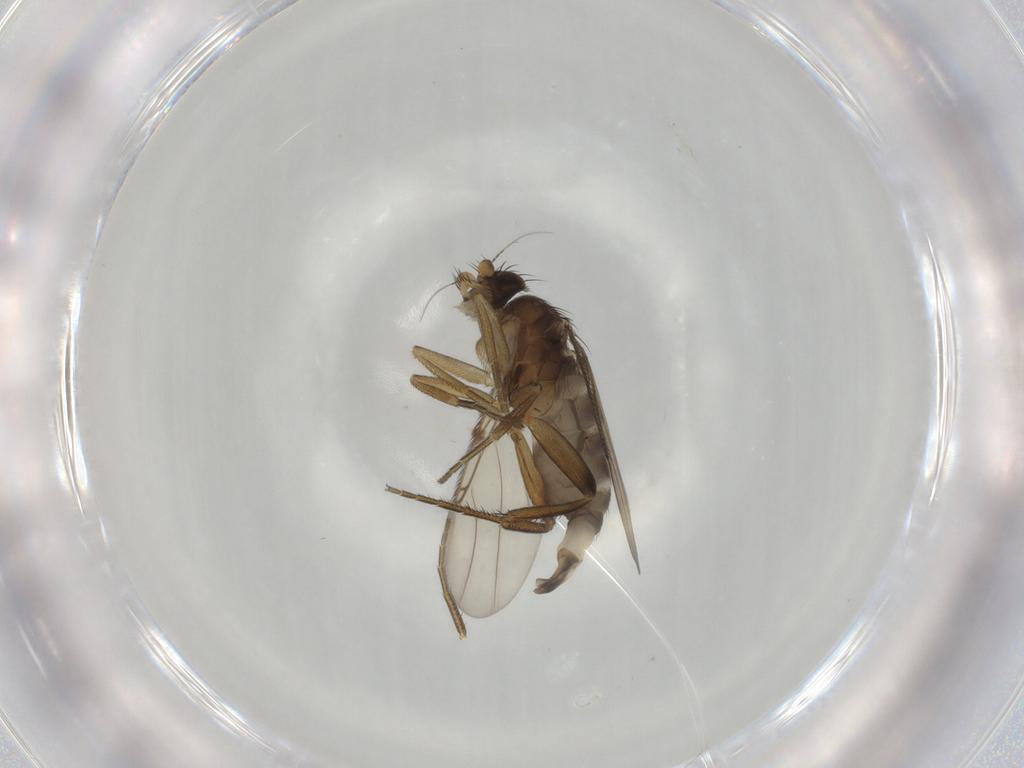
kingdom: Animalia
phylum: Arthropoda
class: Insecta
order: Diptera
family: Phoridae
